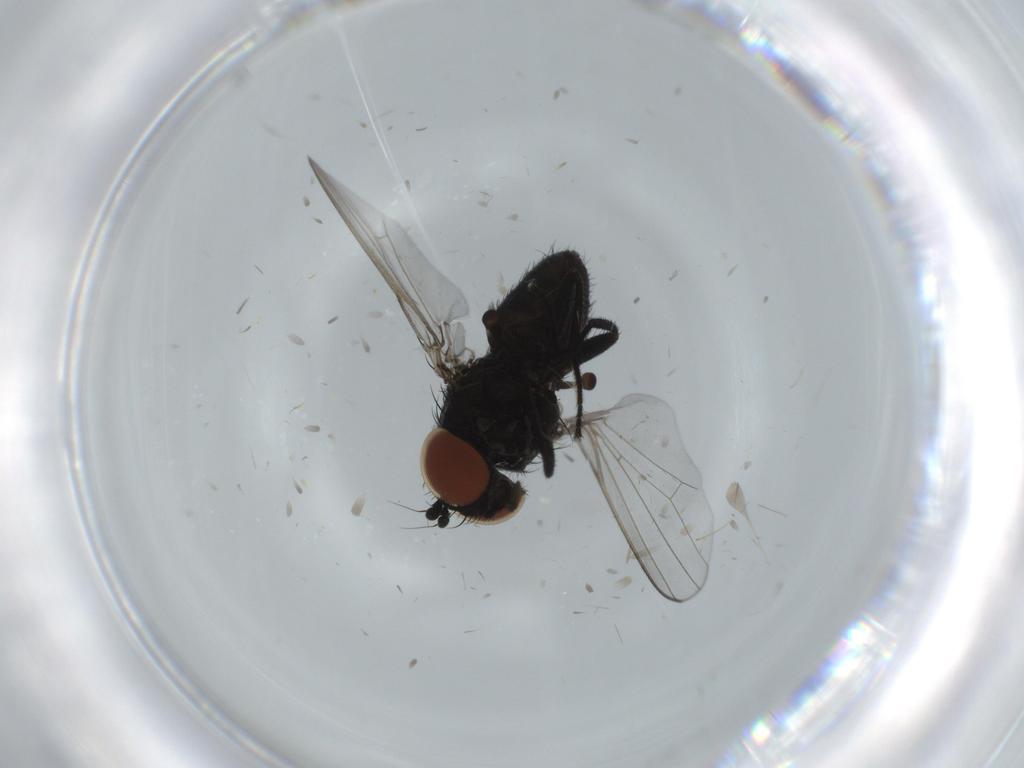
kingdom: Animalia
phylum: Arthropoda
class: Insecta
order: Diptera
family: Milichiidae
